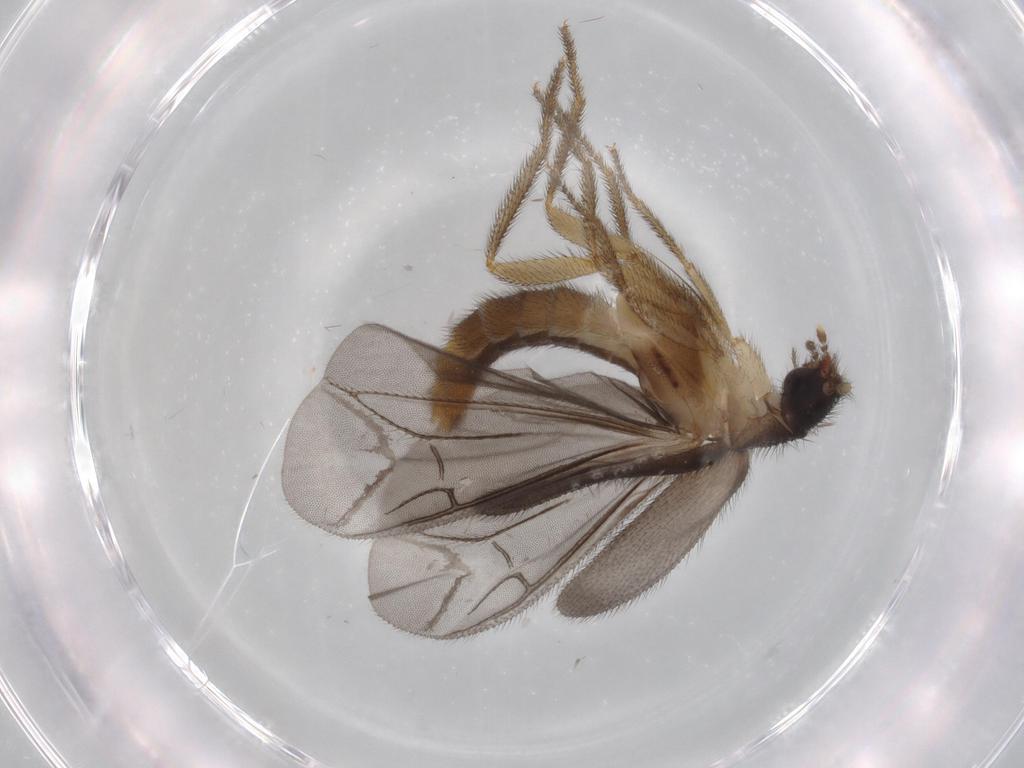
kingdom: Animalia
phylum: Arthropoda
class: Insecta
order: Coleoptera
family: Phengodidae
